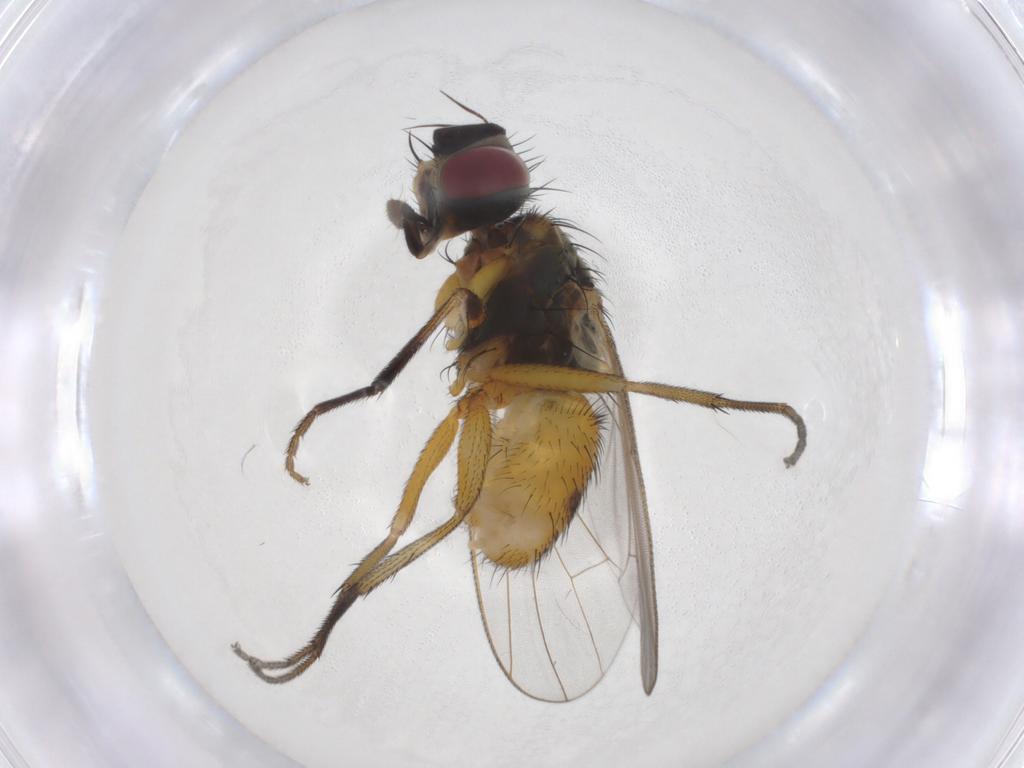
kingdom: Animalia
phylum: Arthropoda
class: Insecta
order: Diptera
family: Muscidae
